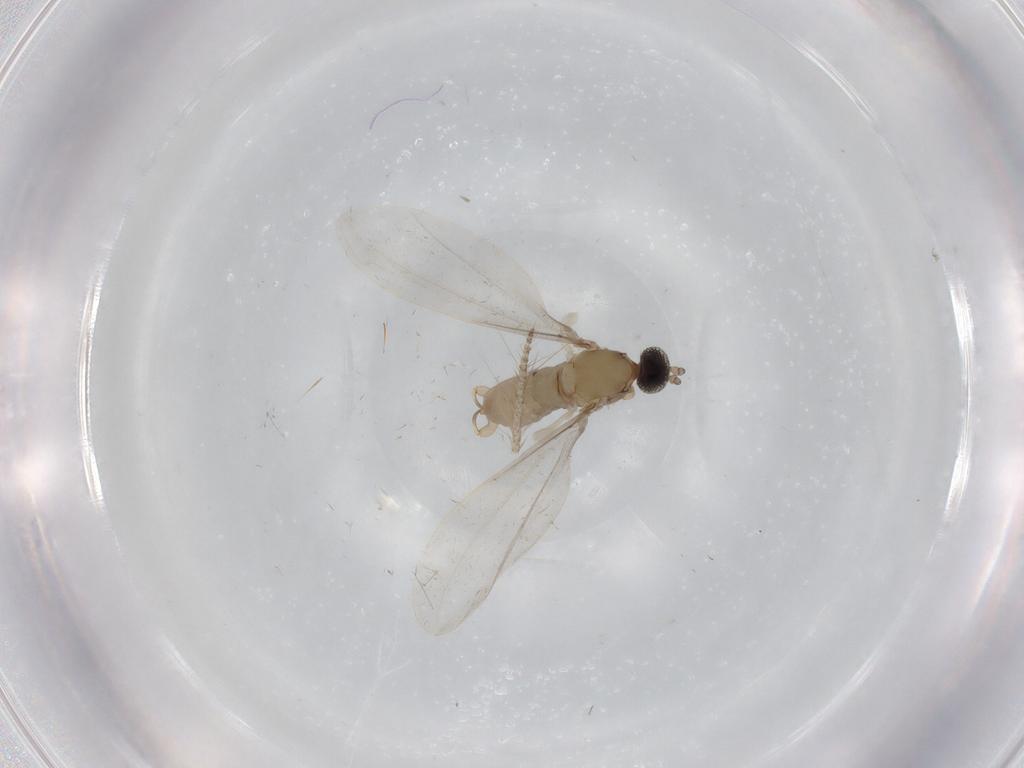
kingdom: Animalia
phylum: Arthropoda
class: Insecta
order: Diptera
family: Cecidomyiidae
